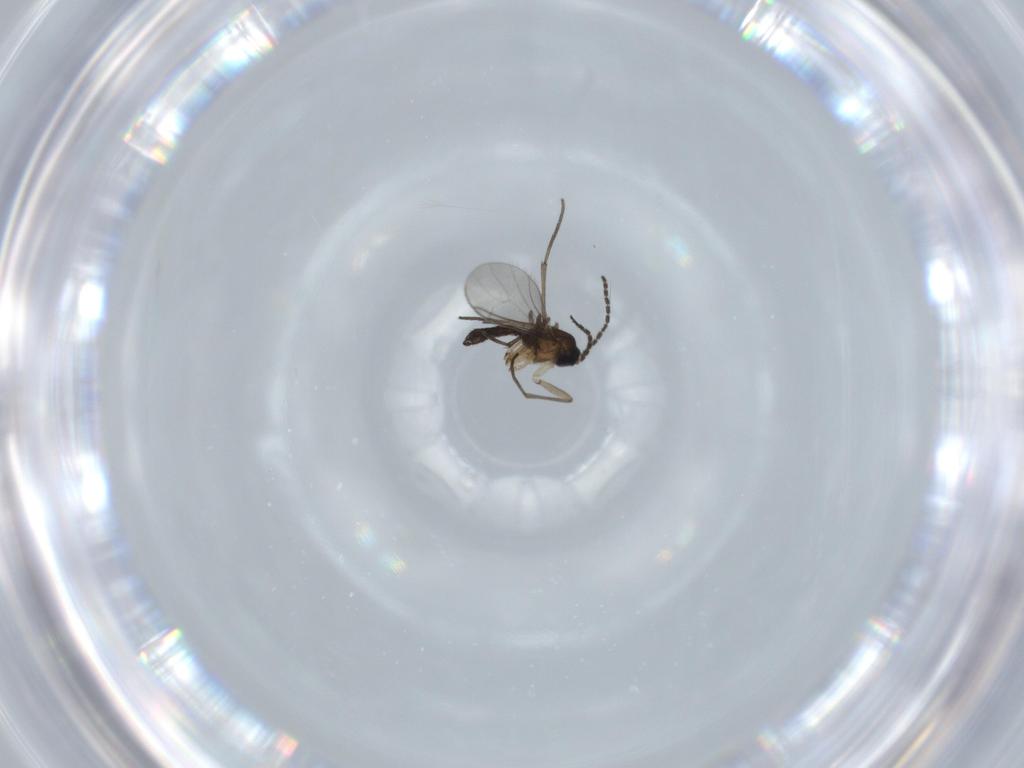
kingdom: Animalia
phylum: Arthropoda
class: Insecta
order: Diptera
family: Sciaridae
